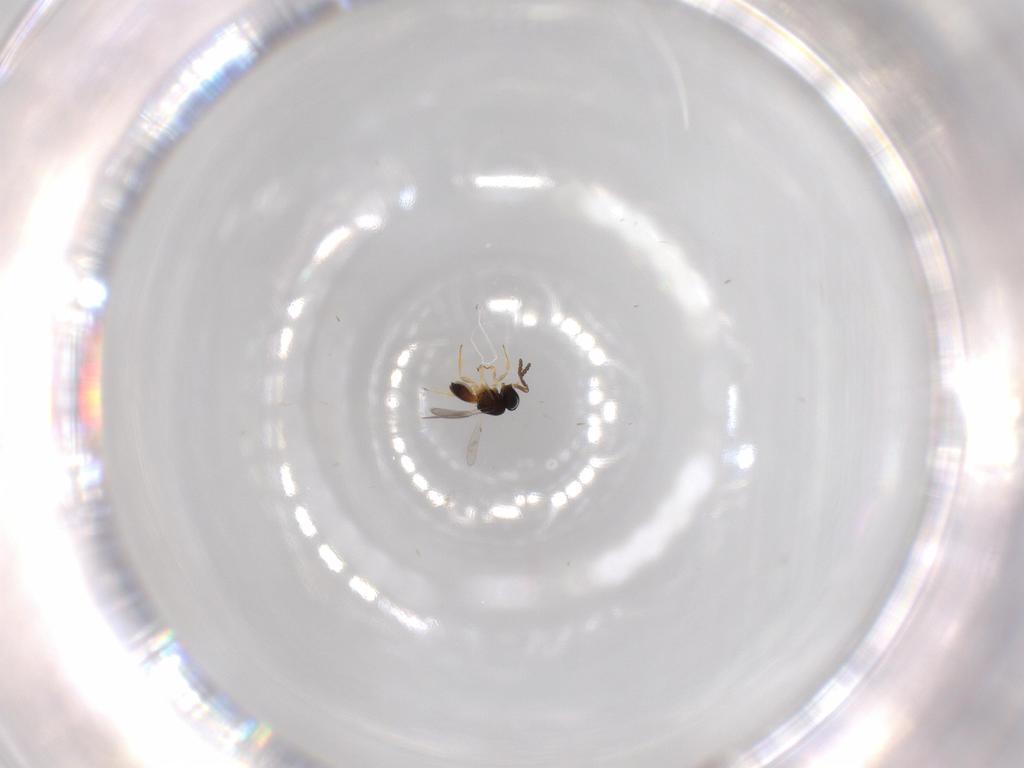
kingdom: Animalia
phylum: Arthropoda
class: Insecta
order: Hymenoptera
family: Scelionidae
